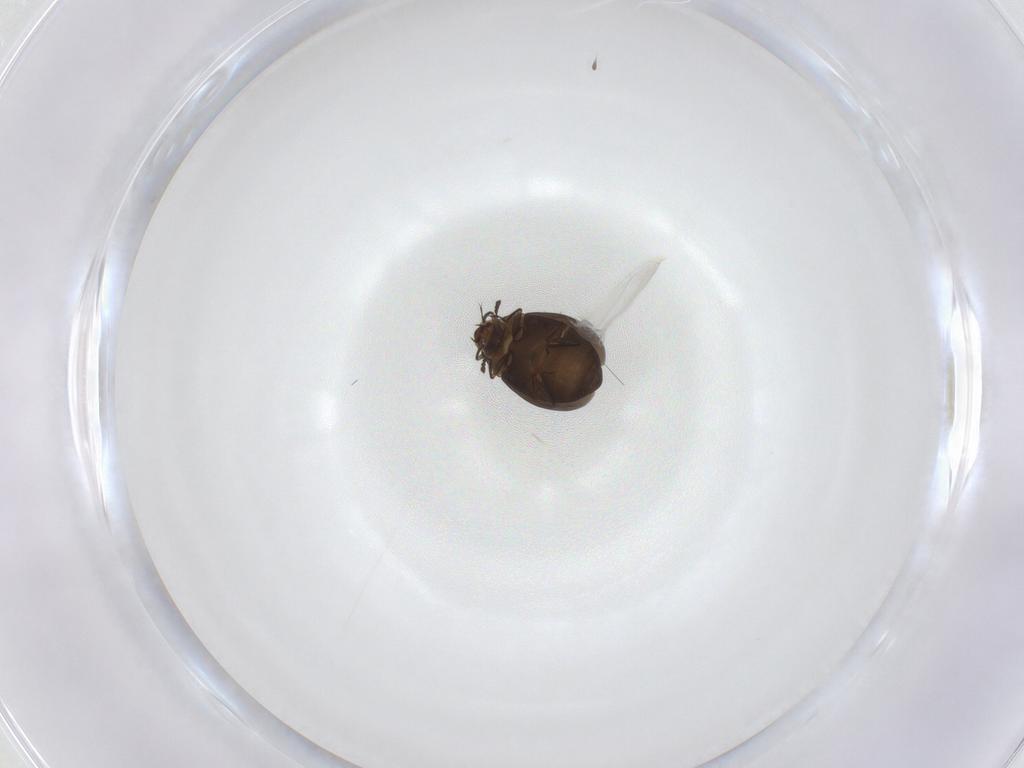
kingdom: Animalia
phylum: Arthropoda
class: Insecta
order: Coleoptera
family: Corylophidae
